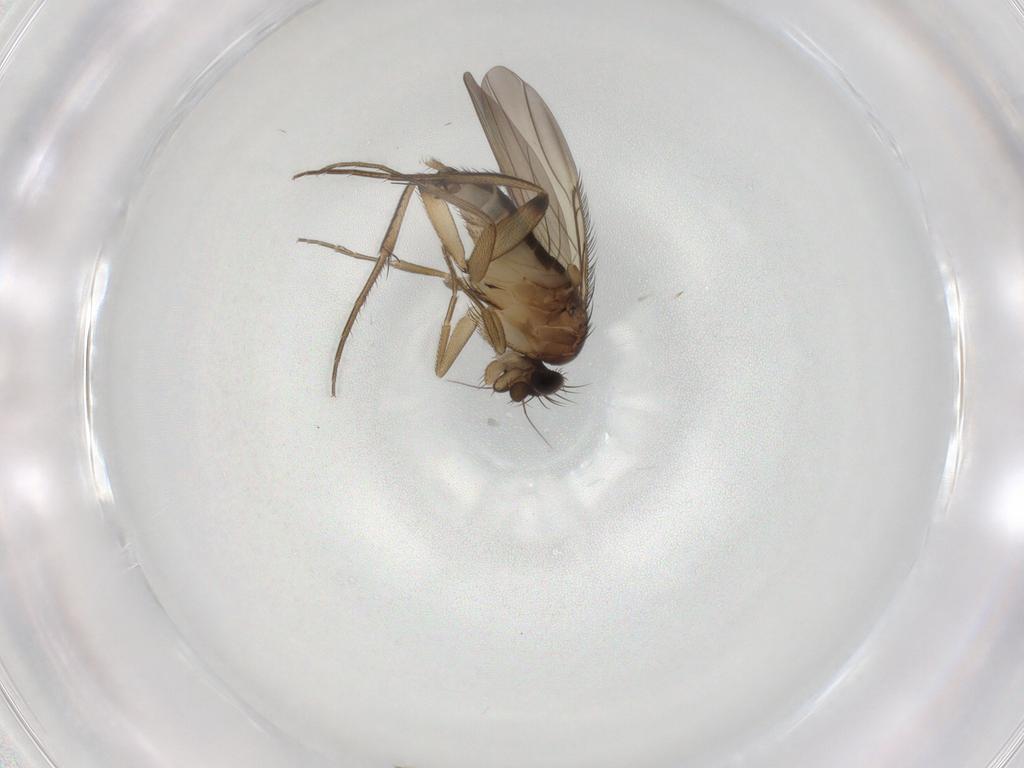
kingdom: Animalia
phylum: Arthropoda
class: Insecta
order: Diptera
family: Phoridae
